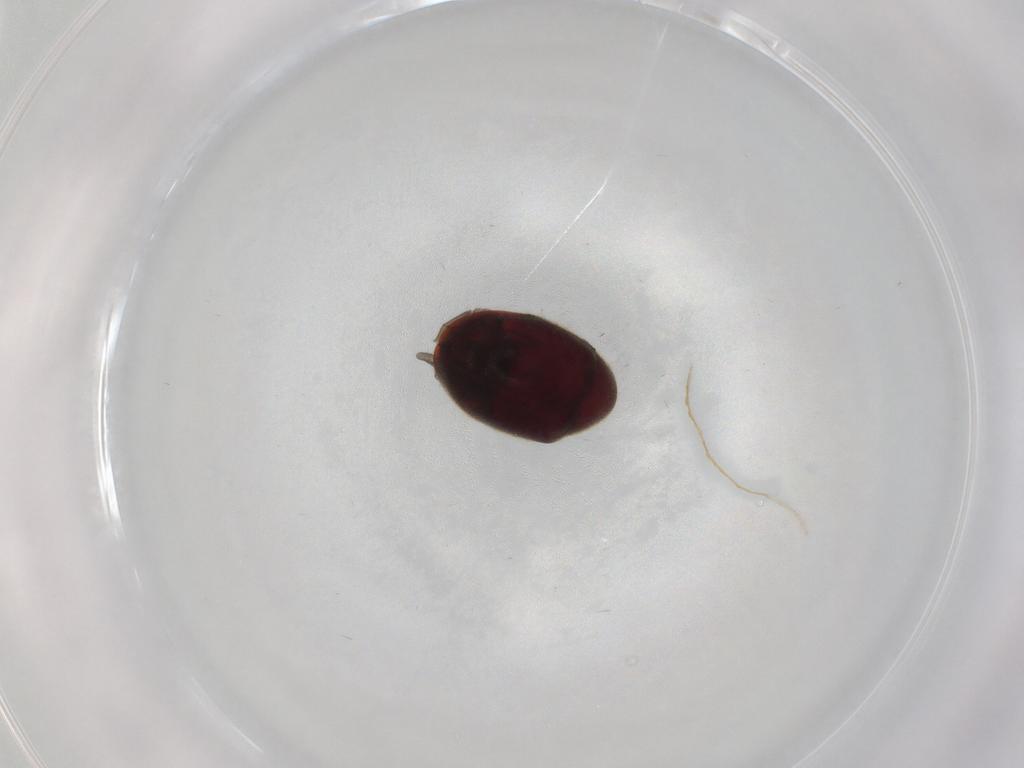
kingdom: Animalia
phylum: Arthropoda
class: Insecta
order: Coleoptera
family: Ptinidae
